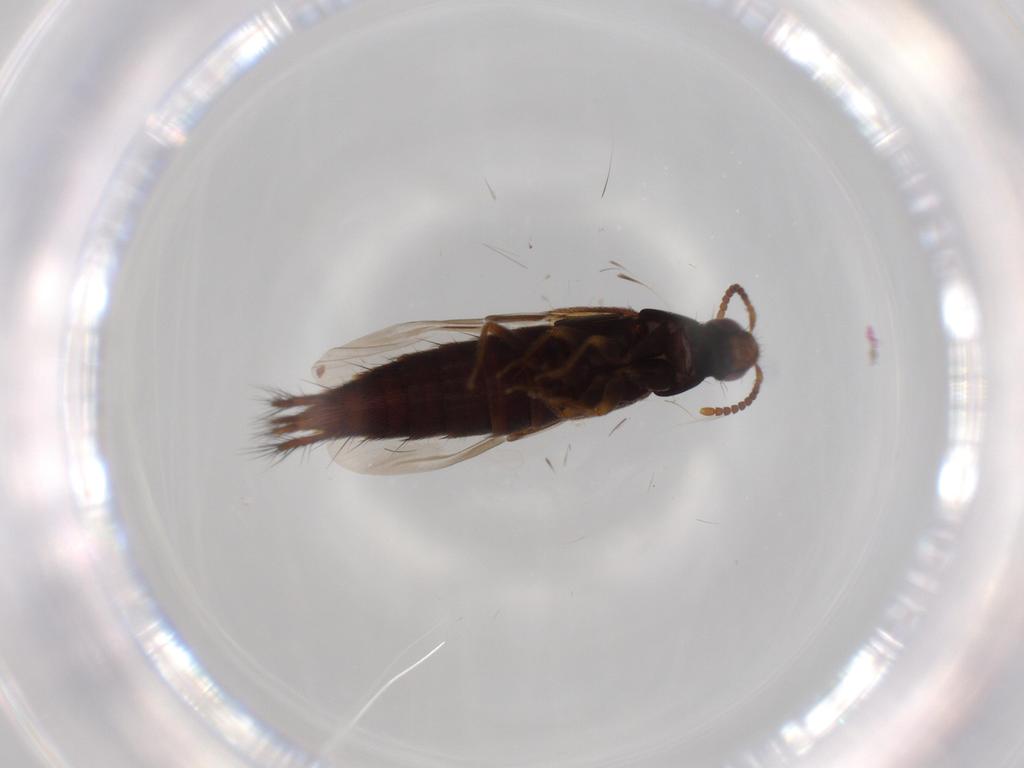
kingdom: Animalia
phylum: Arthropoda
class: Insecta
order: Coleoptera
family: Staphylinidae
